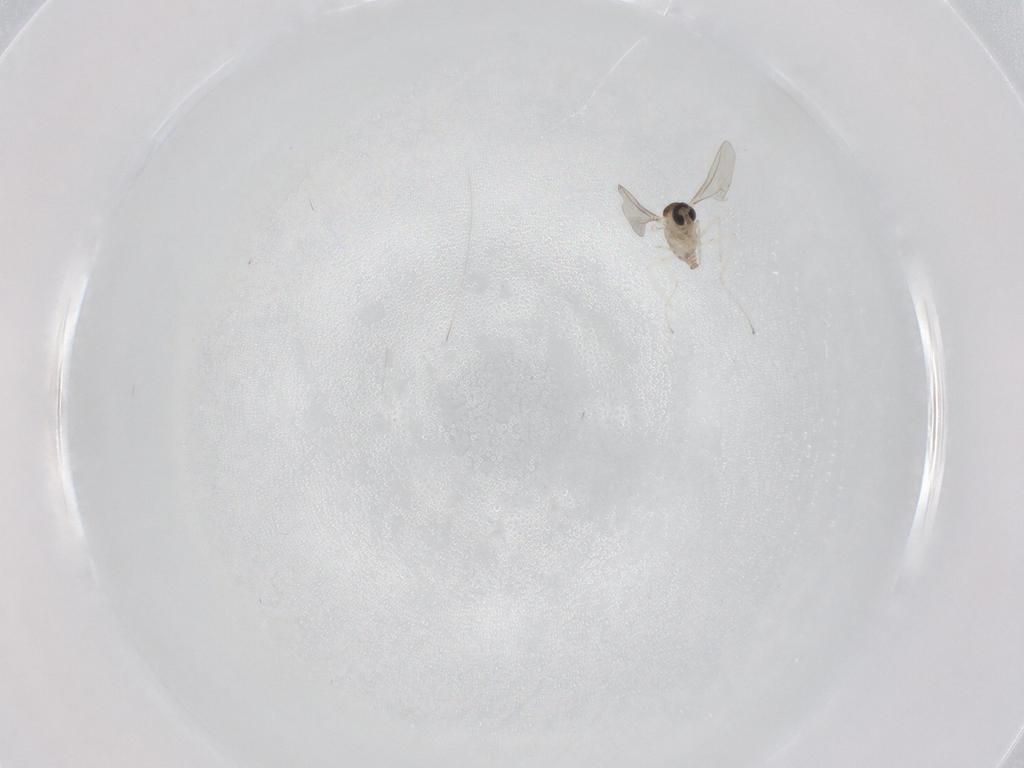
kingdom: Animalia
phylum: Arthropoda
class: Insecta
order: Diptera
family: Cecidomyiidae
